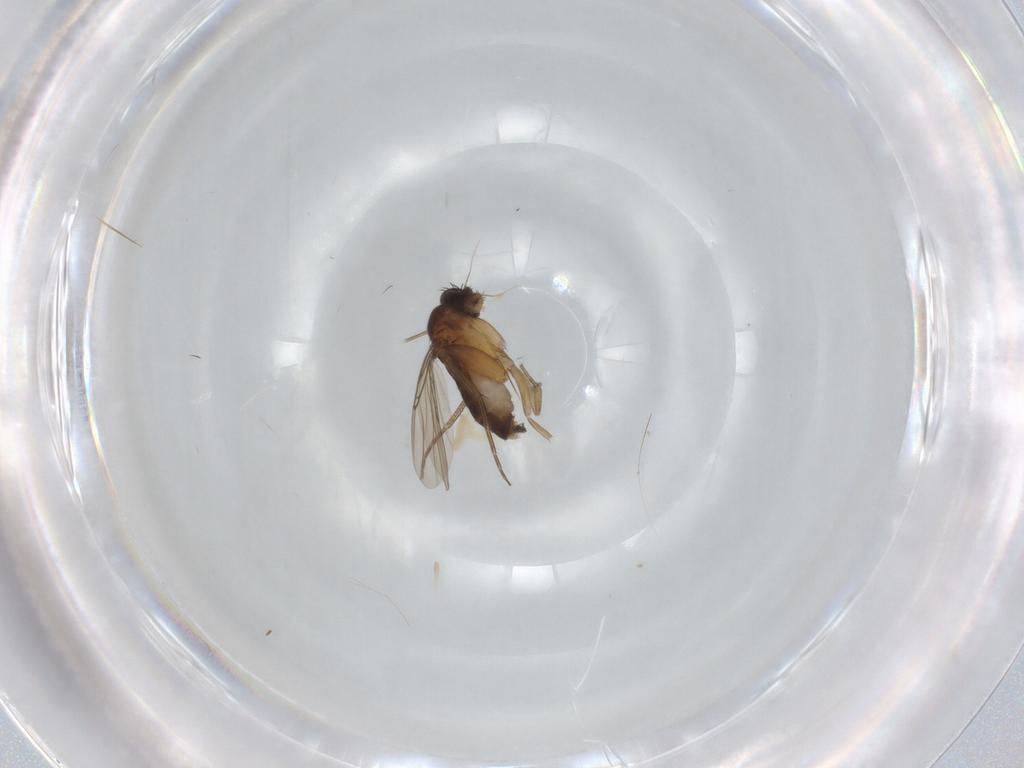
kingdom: Animalia
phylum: Arthropoda
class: Insecta
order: Diptera
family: Phoridae
